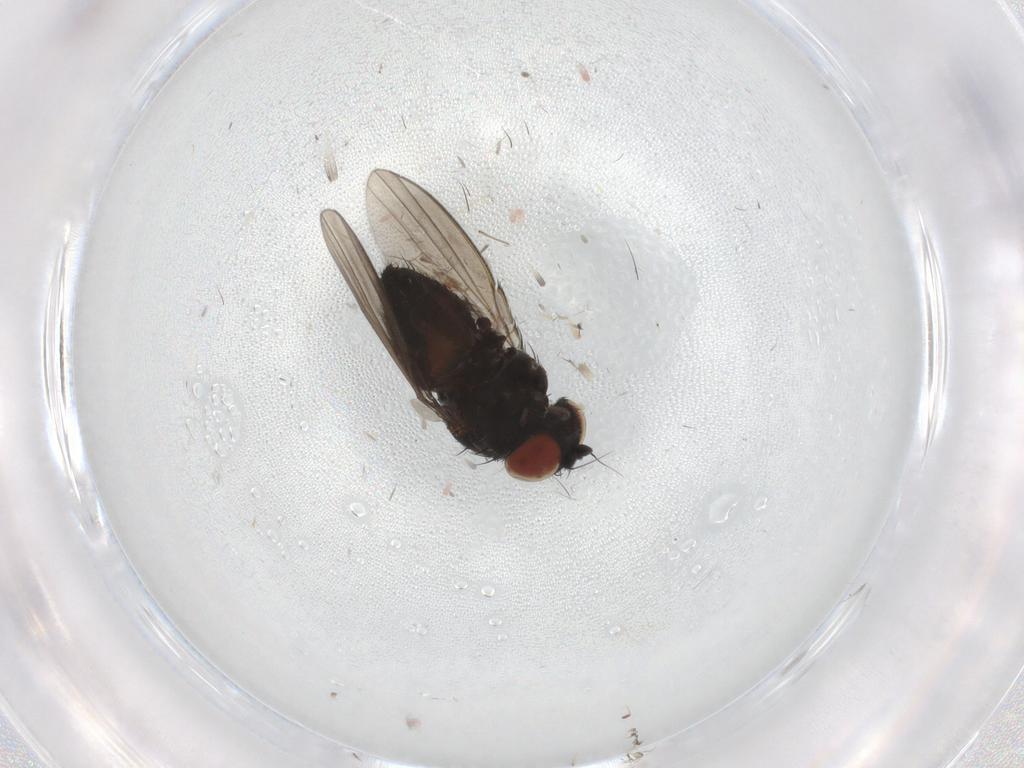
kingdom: Animalia
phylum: Arthropoda
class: Insecta
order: Diptera
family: Milichiidae
